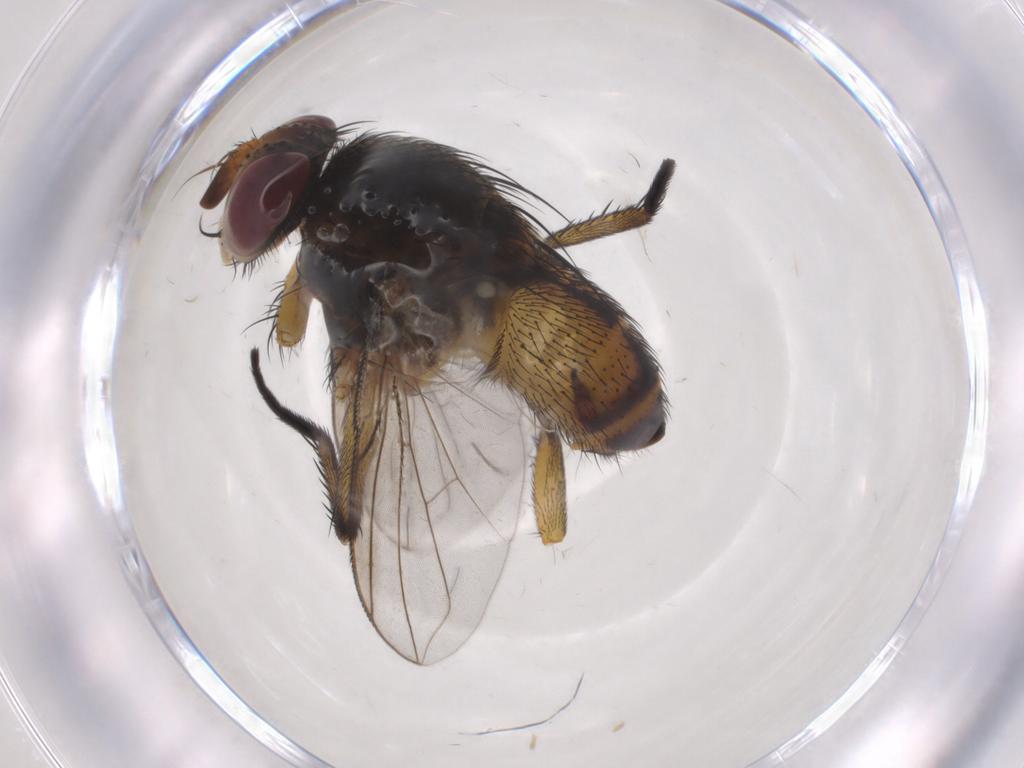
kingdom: Animalia
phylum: Arthropoda
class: Insecta
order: Diptera
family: Tachinidae
